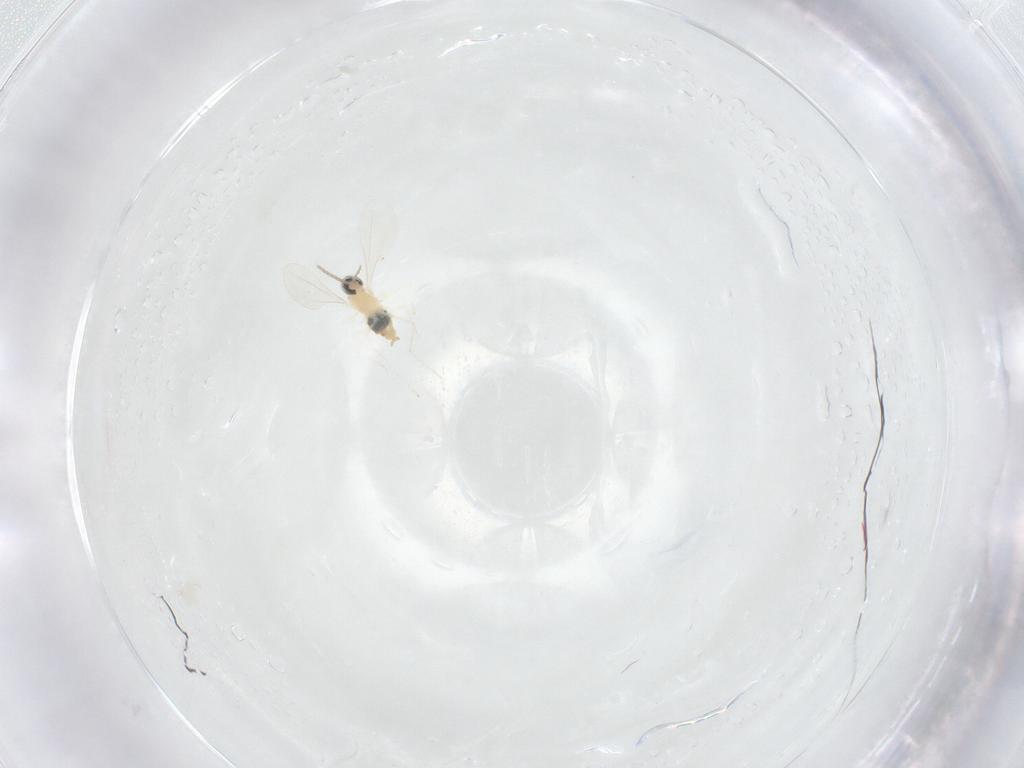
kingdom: Animalia
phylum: Arthropoda
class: Insecta
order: Diptera
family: Cecidomyiidae
